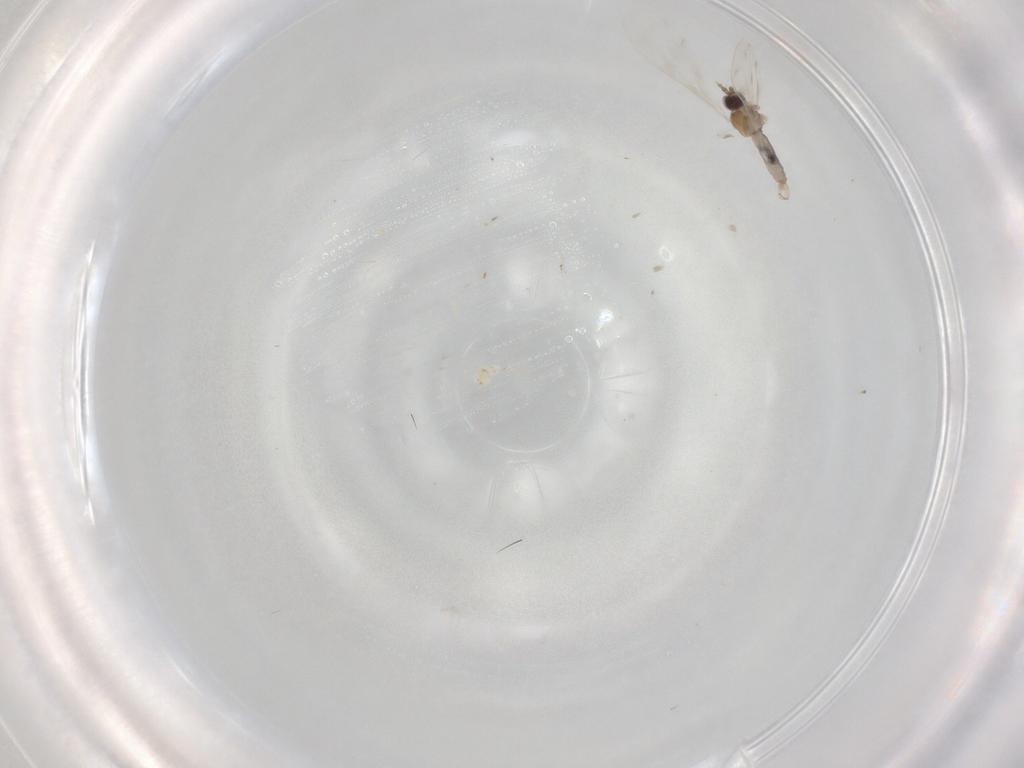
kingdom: Animalia
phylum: Arthropoda
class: Insecta
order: Diptera
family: Cecidomyiidae
